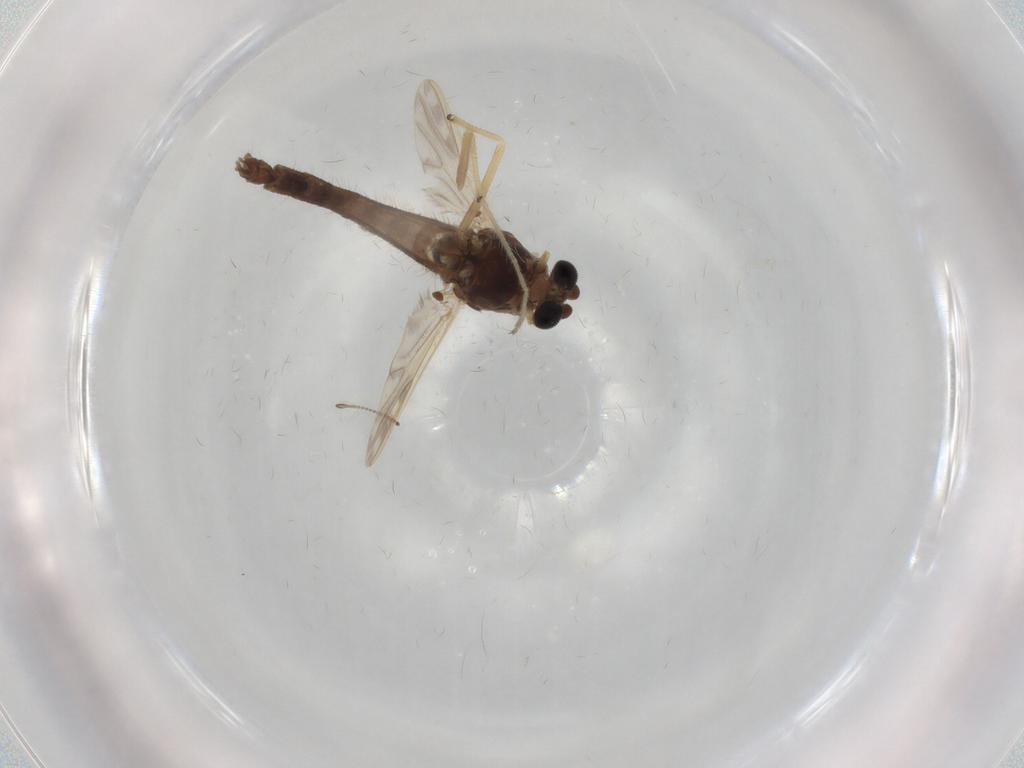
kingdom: Animalia
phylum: Arthropoda
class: Insecta
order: Diptera
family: Chironomidae
